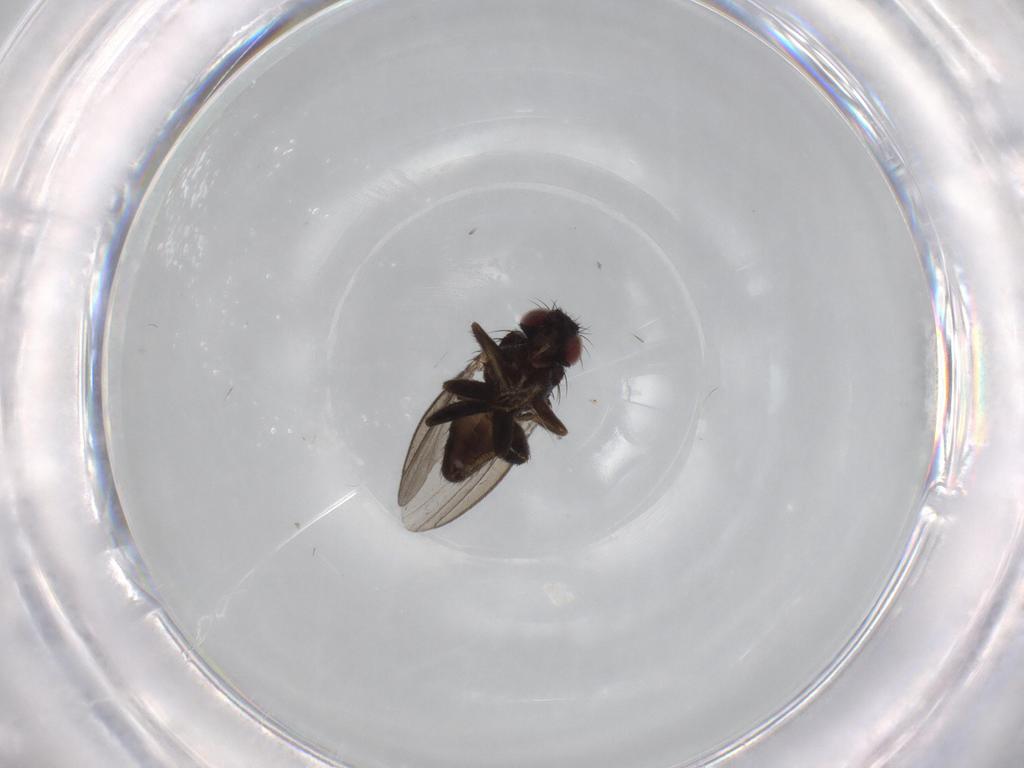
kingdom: Animalia
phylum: Arthropoda
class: Insecta
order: Diptera
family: Milichiidae
